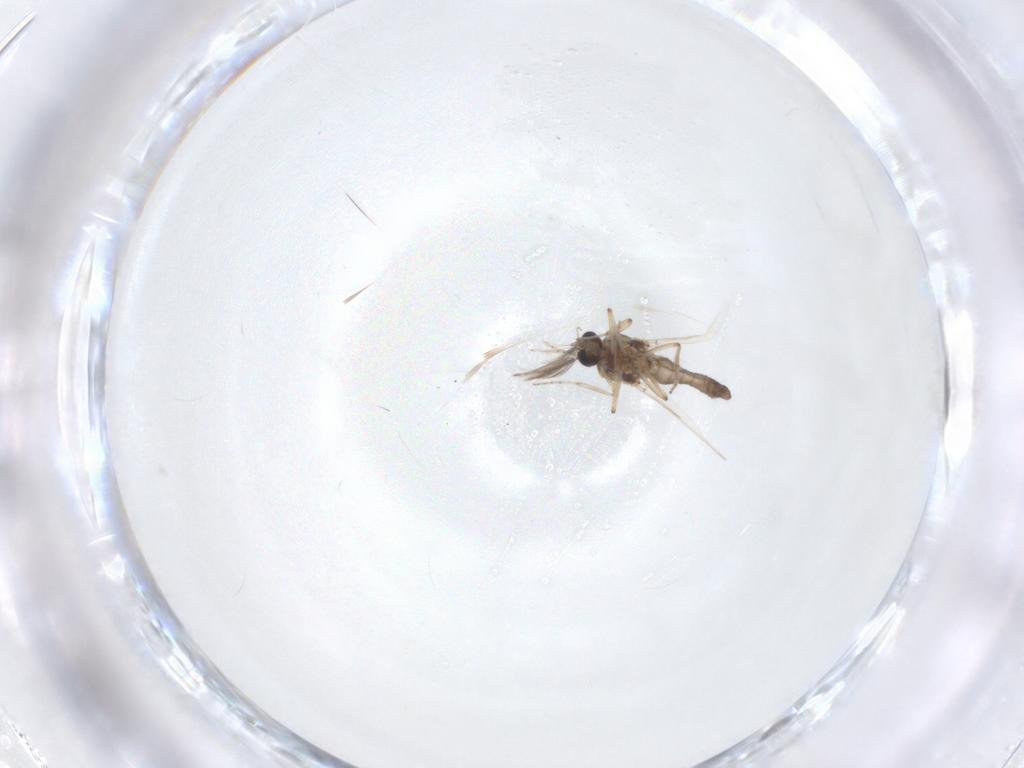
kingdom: Animalia
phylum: Arthropoda
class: Insecta
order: Diptera
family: Ceratopogonidae
